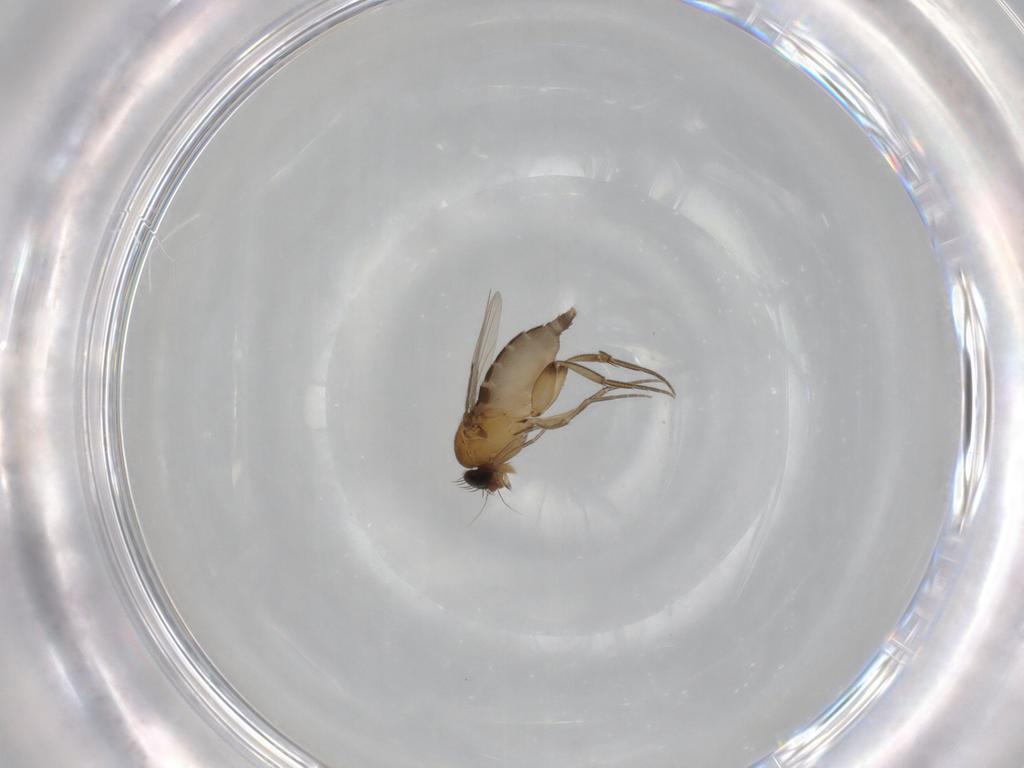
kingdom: Animalia
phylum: Arthropoda
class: Insecta
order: Diptera
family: Phoridae
